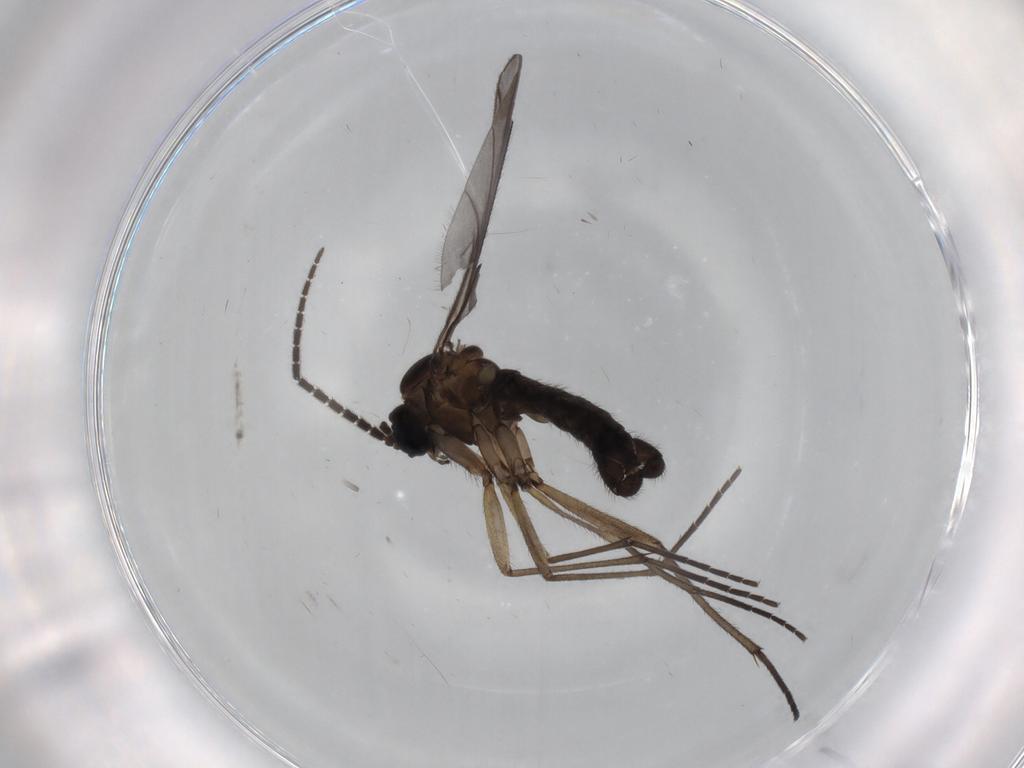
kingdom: Animalia
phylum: Arthropoda
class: Insecta
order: Diptera
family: Sciaridae
